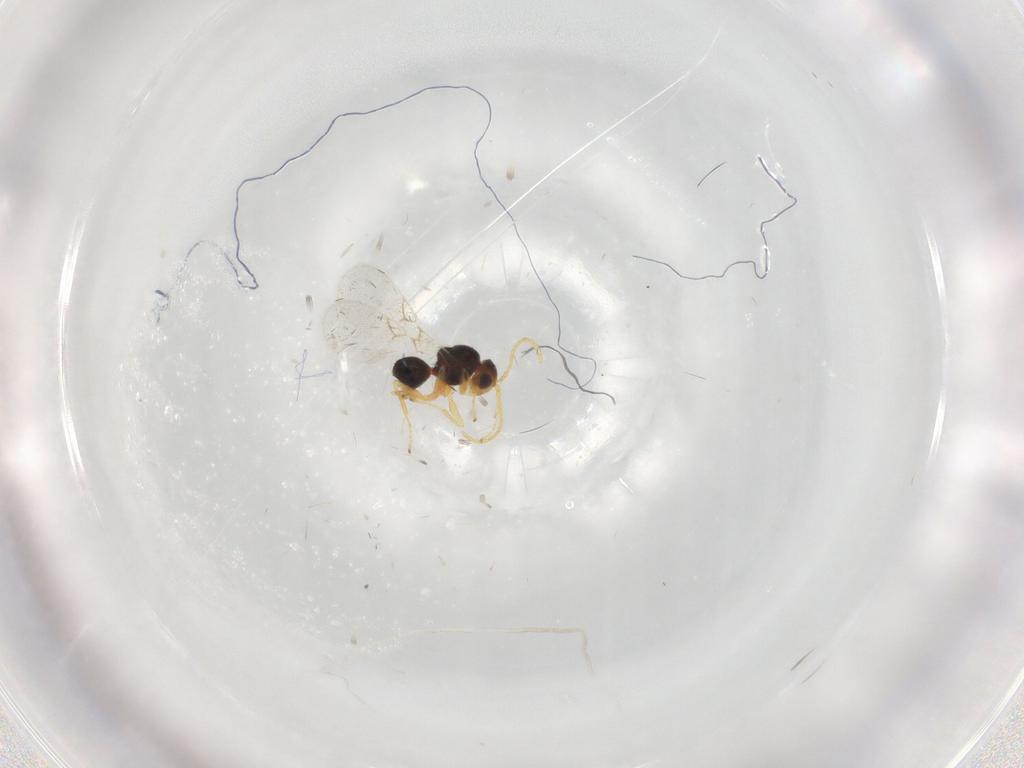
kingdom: Animalia
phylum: Arthropoda
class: Insecta
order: Hymenoptera
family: Figitidae
